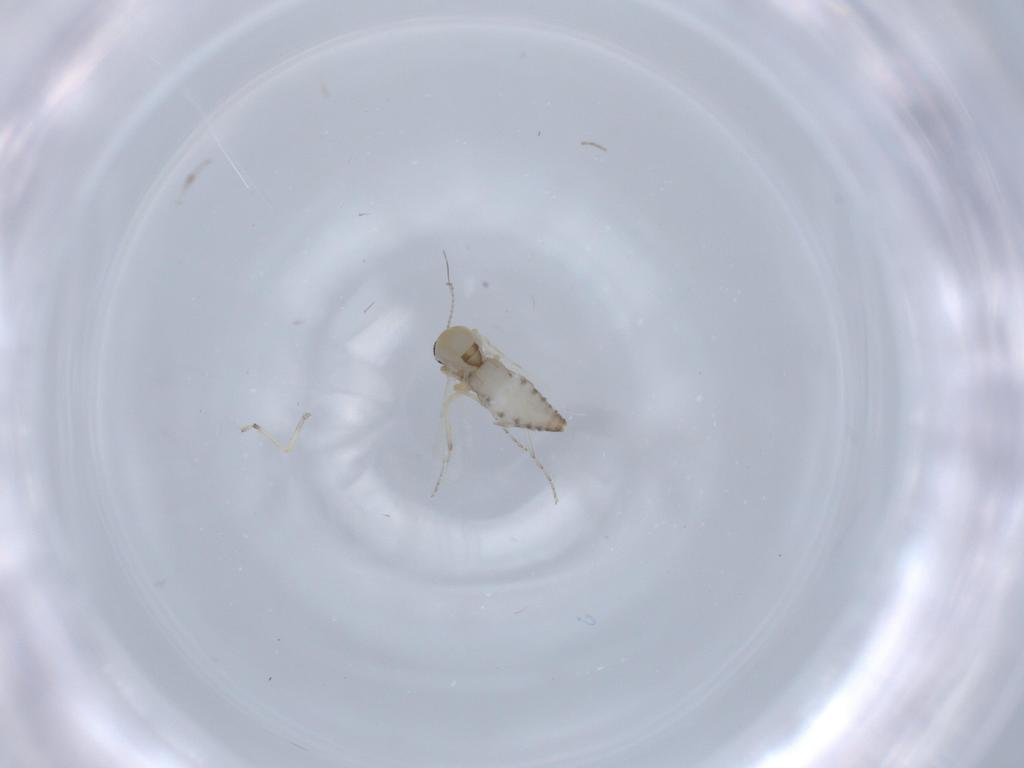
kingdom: Animalia
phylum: Arthropoda
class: Insecta
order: Diptera
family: Ceratopogonidae
